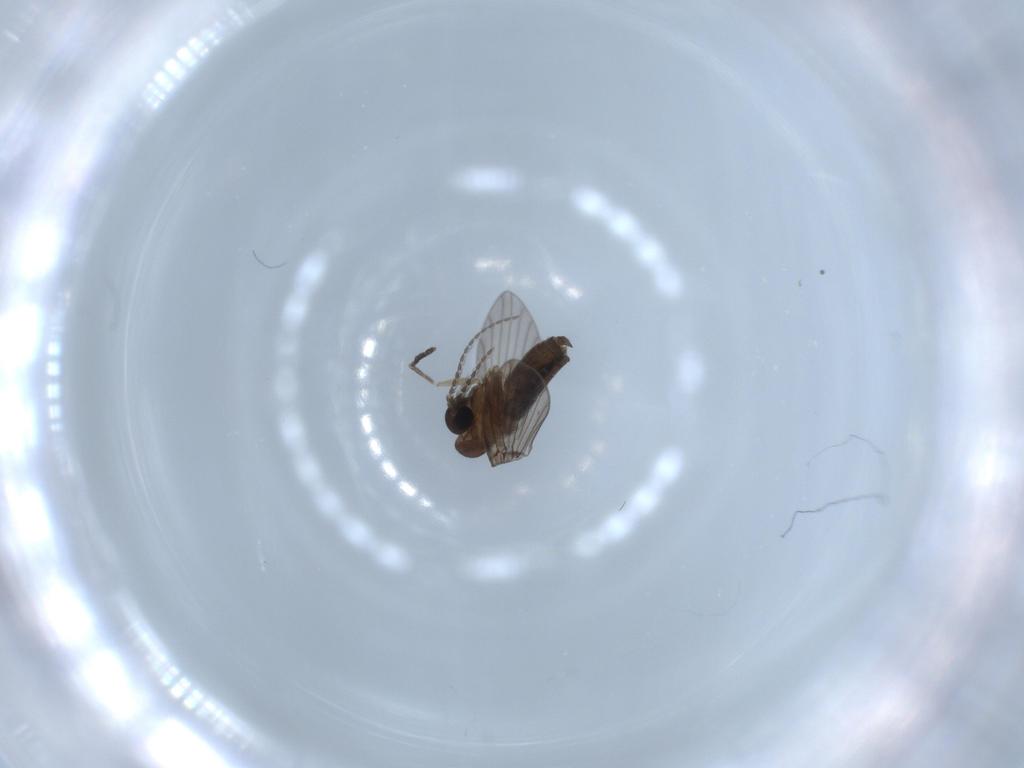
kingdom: Animalia
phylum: Arthropoda
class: Insecta
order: Diptera
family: Psychodidae
